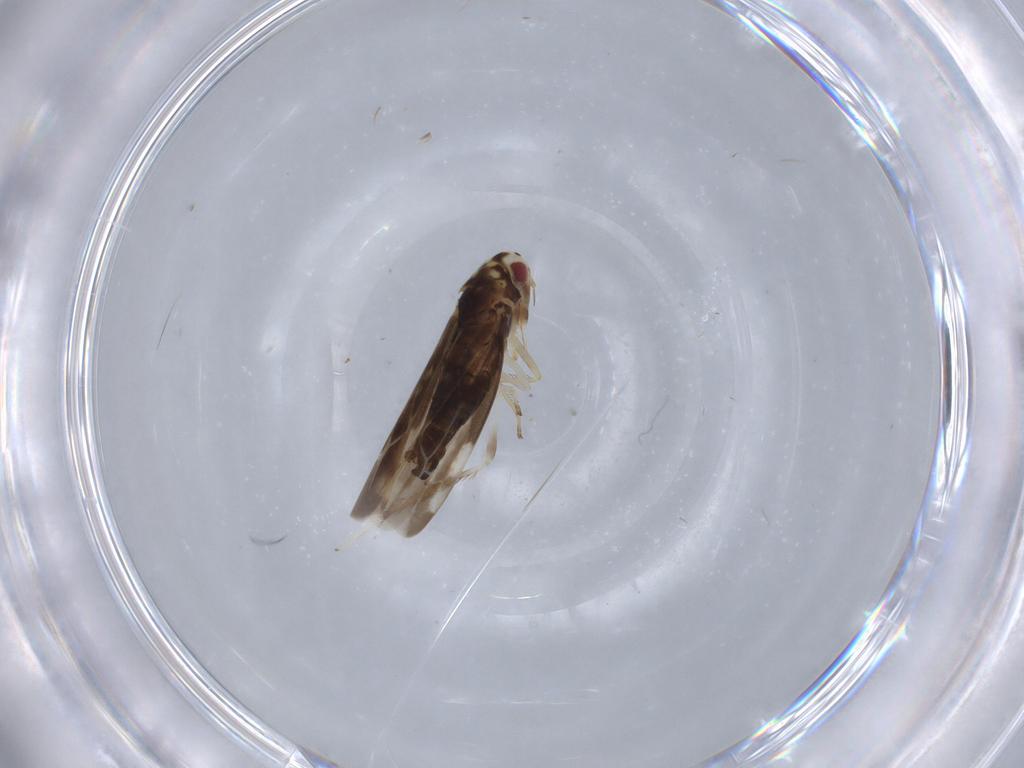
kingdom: Animalia
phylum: Arthropoda
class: Insecta
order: Hemiptera
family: Cicadellidae
